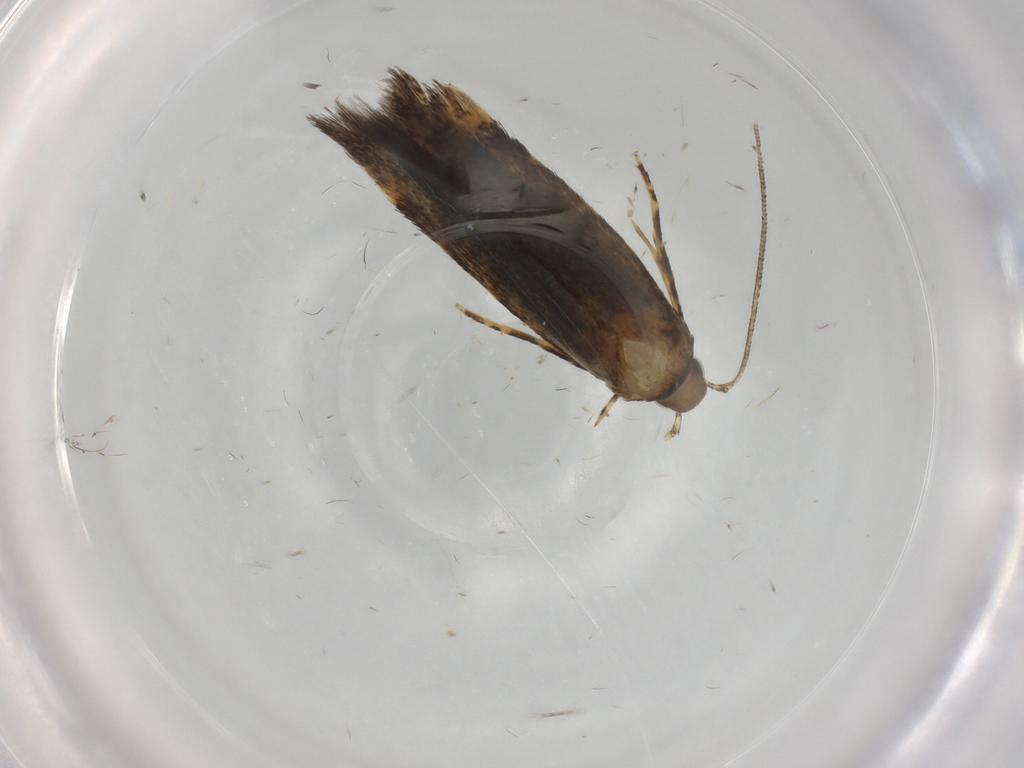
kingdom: Animalia
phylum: Arthropoda
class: Insecta
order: Lepidoptera
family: Oecophoridae
